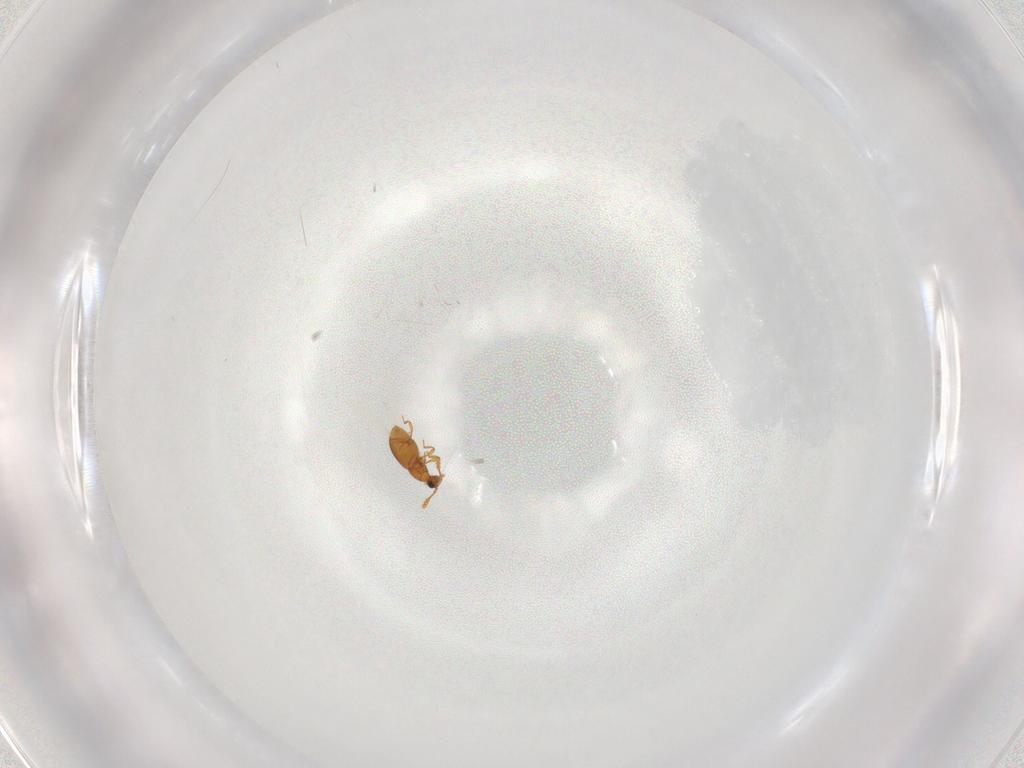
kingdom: Animalia
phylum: Arthropoda
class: Insecta
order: Coleoptera
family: Staphylinidae
